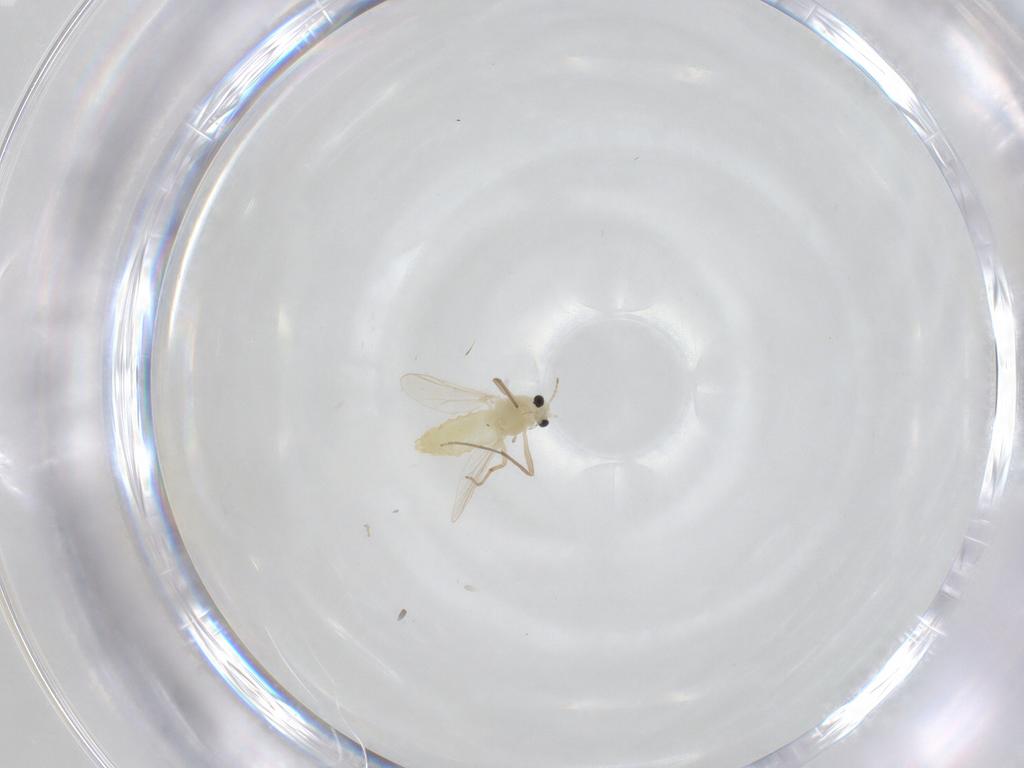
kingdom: Animalia
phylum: Arthropoda
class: Insecta
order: Diptera
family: Chironomidae
